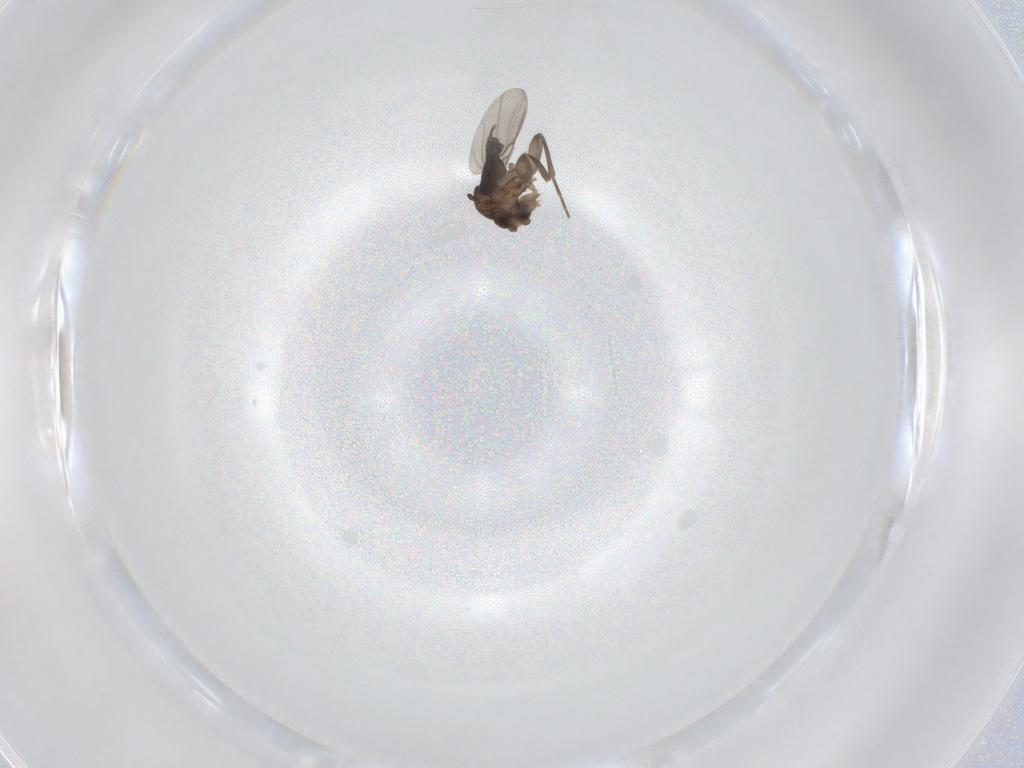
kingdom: Animalia
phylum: Arthropoda
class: Insecta
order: Diptera
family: Phoridae
